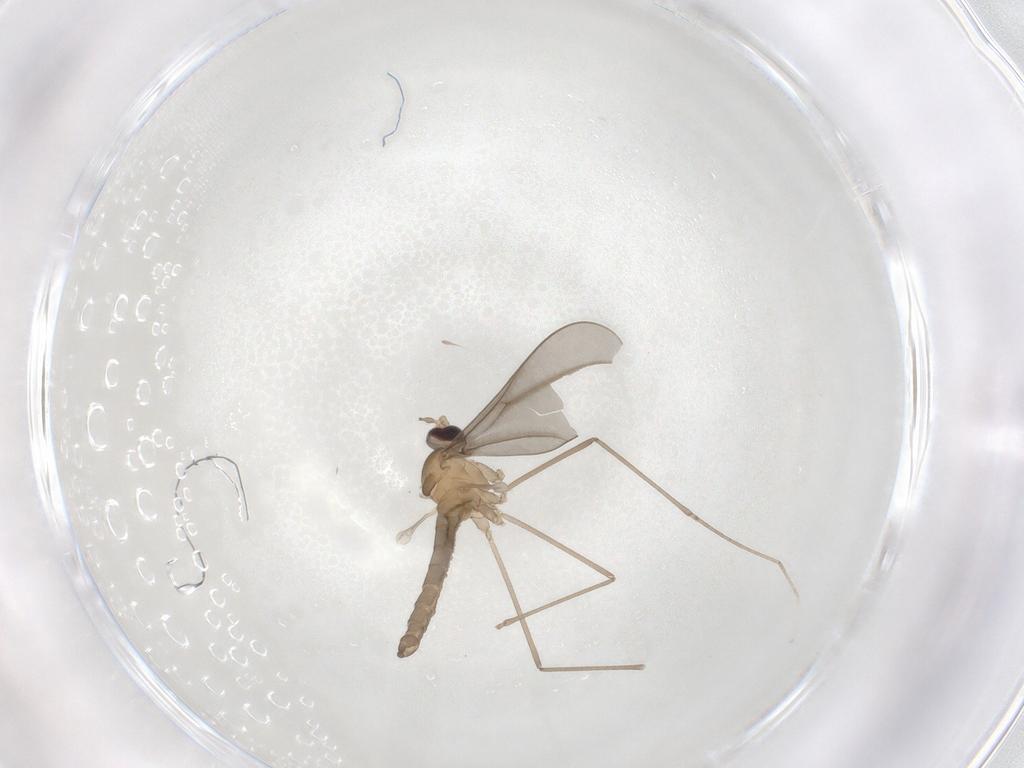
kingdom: Animalia
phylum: Arthropoda
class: Insecta
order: Diptera
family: Cecidomyiidae
